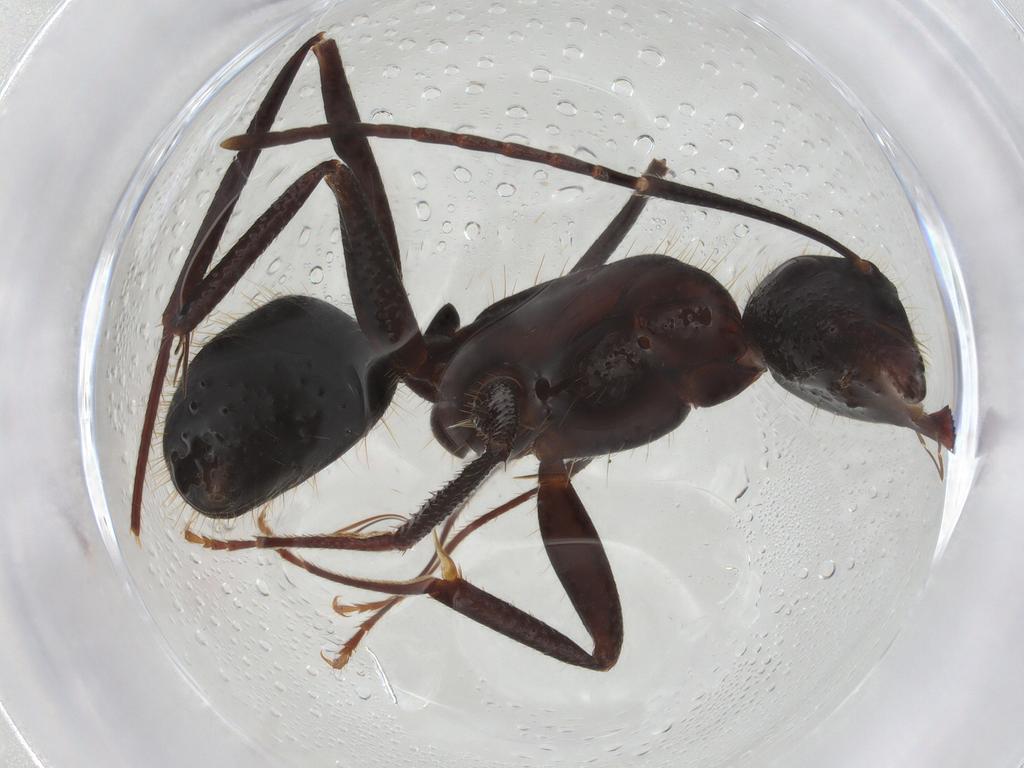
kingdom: Animalia
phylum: Arthropoda
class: Insecta
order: Hymenoptera
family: Formicidae
